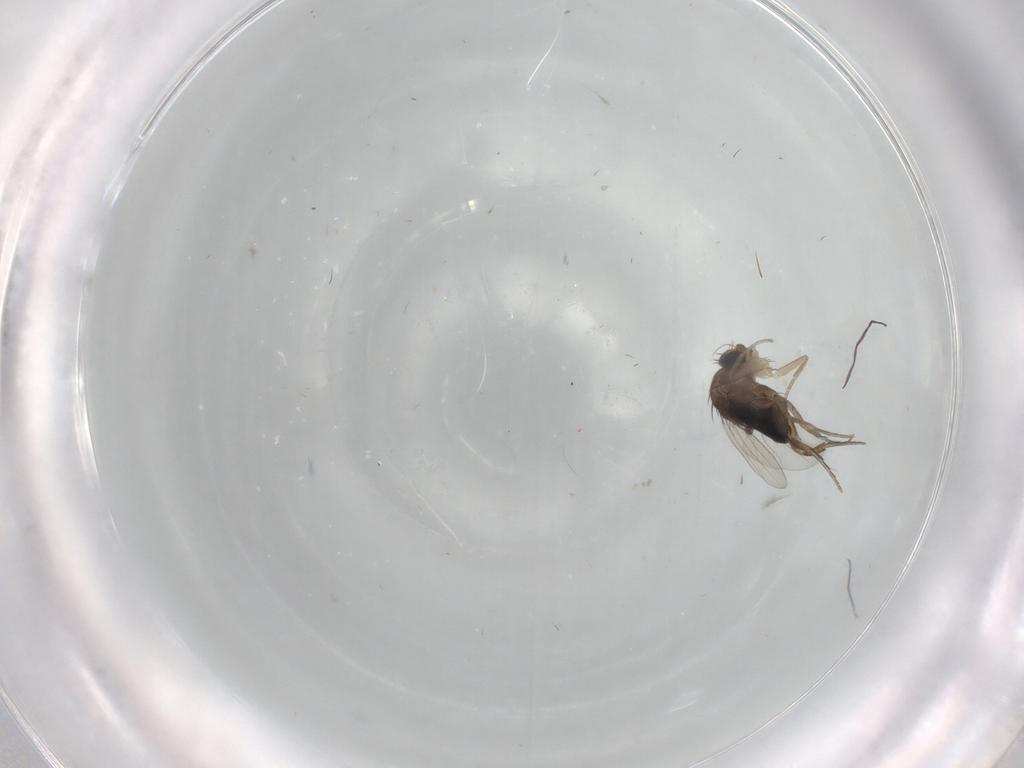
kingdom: Animalia
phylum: Arthropoda
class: Insecta
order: Diptera
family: Phoridae
